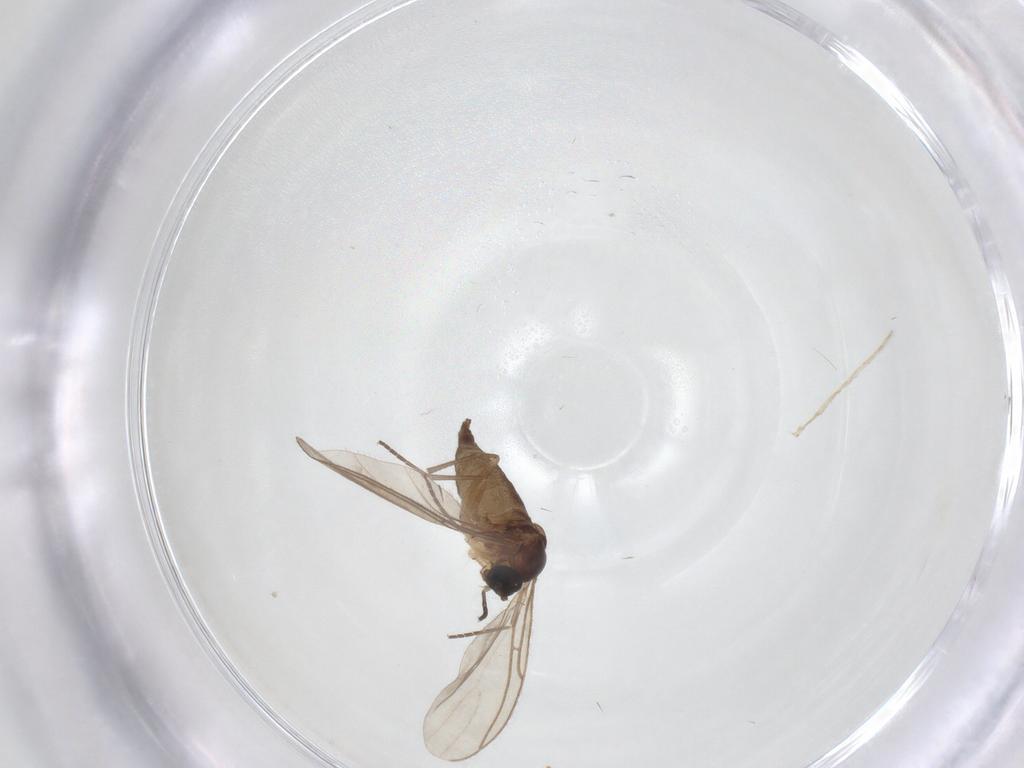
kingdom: Animalia
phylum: Arthropoda
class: Insecta
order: Diptera
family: Sciaridae
